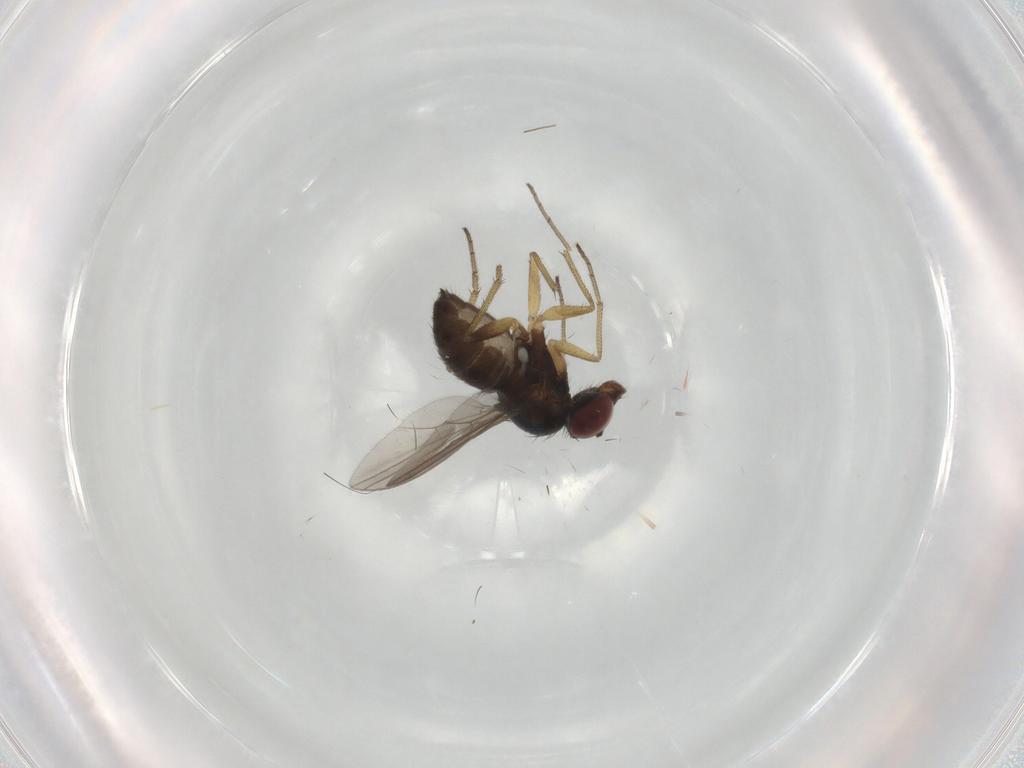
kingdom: Animalia
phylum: Arthropoda
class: Insecta
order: Diptera
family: Dolichopodidae
